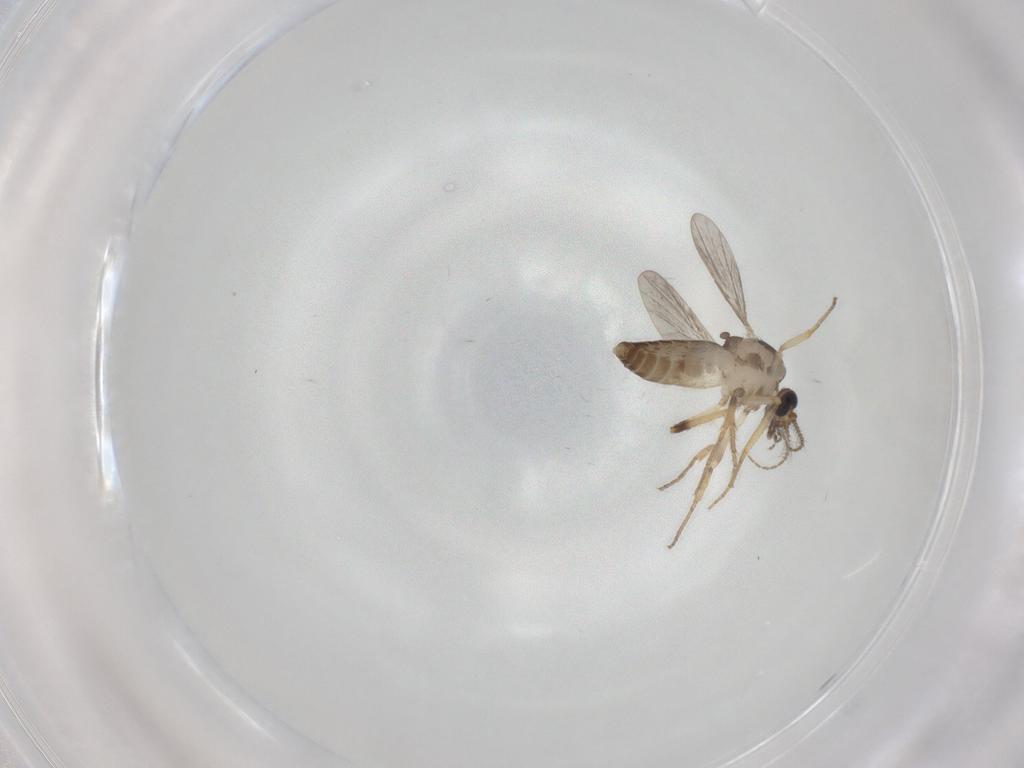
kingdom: Animalia
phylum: Arthropoda
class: Insecta
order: Diptera
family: Ceratopogonidae
